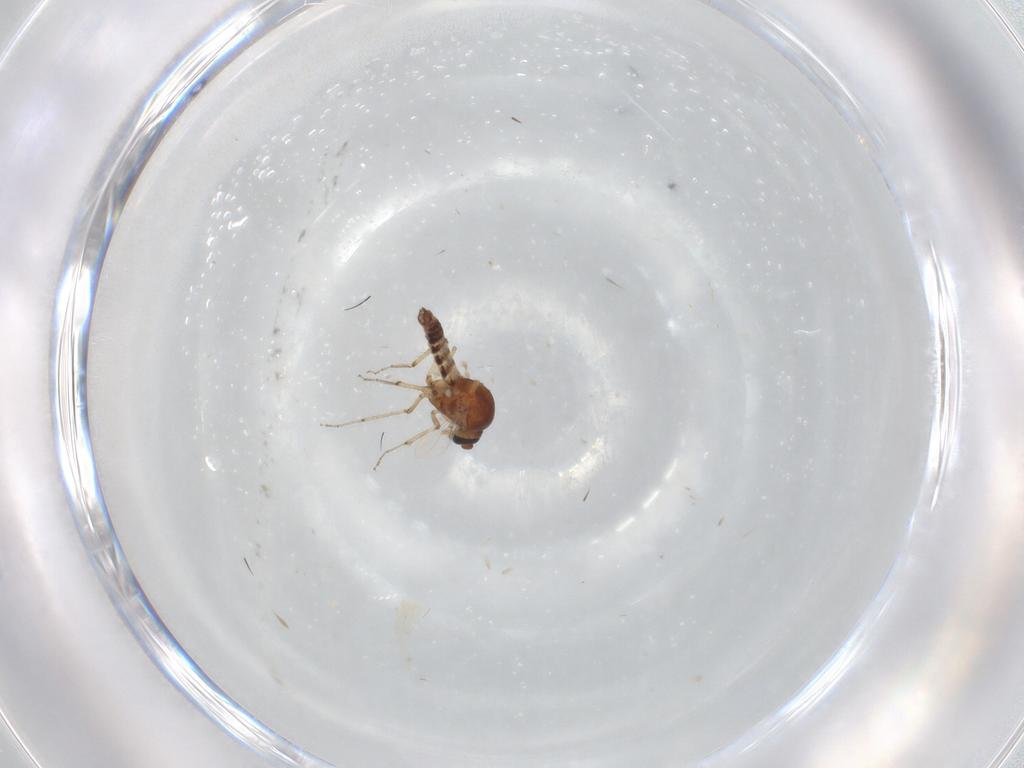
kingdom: Animalia
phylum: Arthropoda
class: Insecta
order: Diptera
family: Ceratopogonidae
